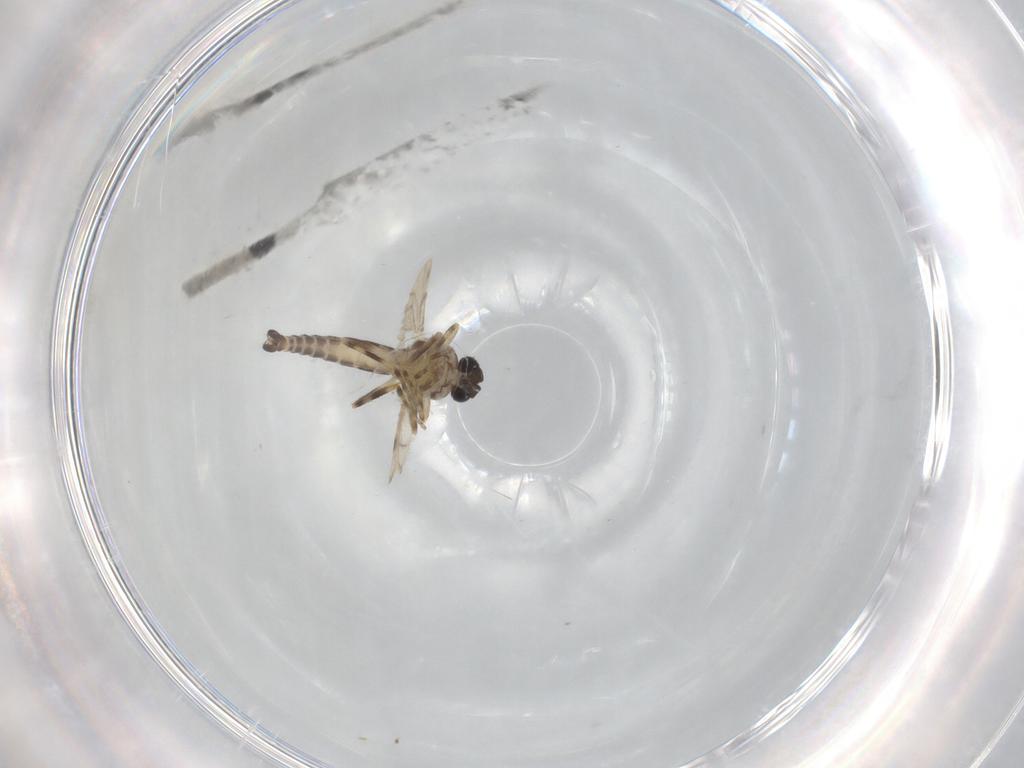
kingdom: Animalia
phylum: Arthropoda
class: Insecta
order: Diptera
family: Ceratopogonidae
